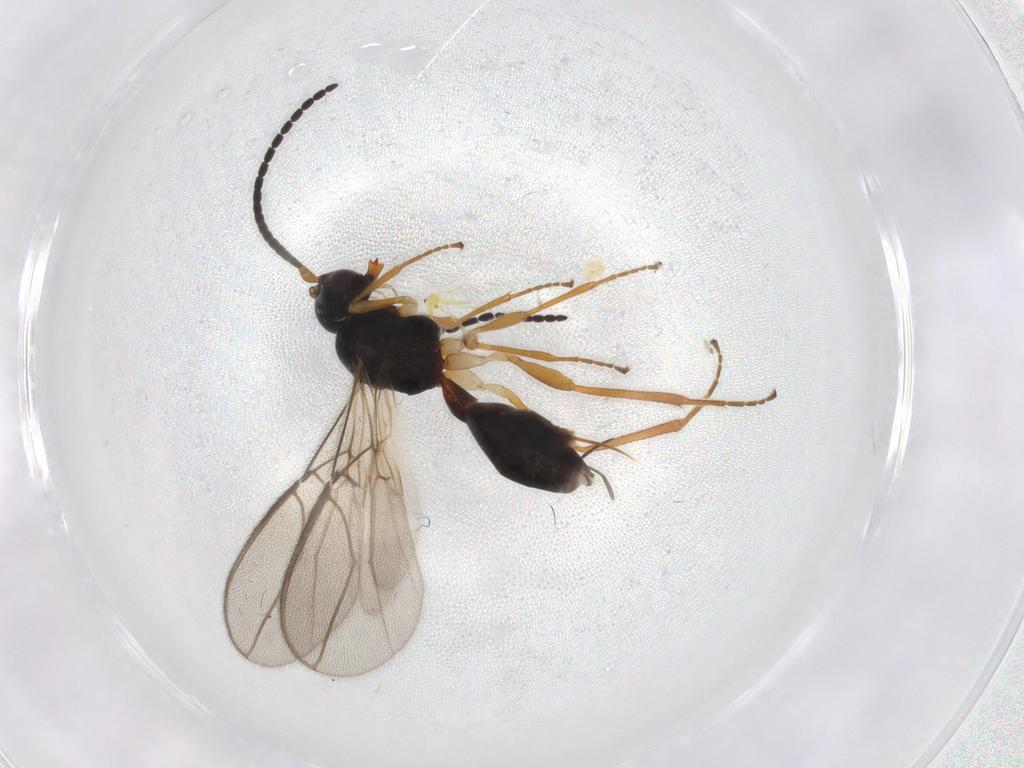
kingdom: Animalia
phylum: Arthropoda
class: Insecta
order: Hymenoptera
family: Braconidae
